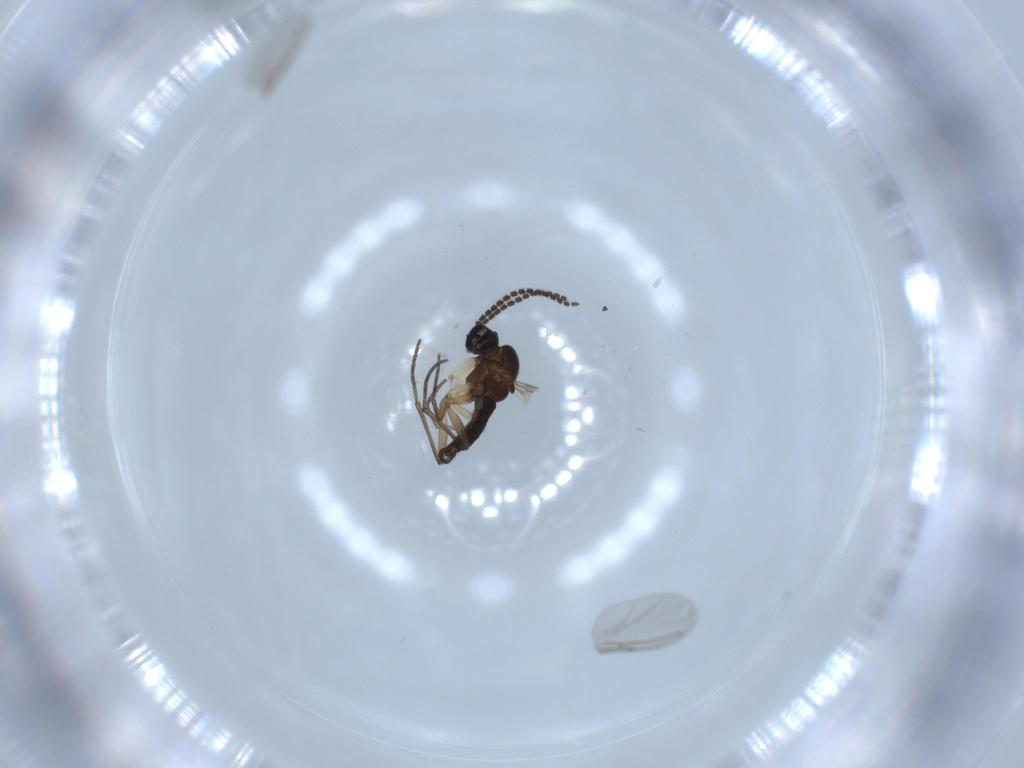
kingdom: Animalia
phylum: Arthropoda
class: Insecta
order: Diptera
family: Sciaridae
